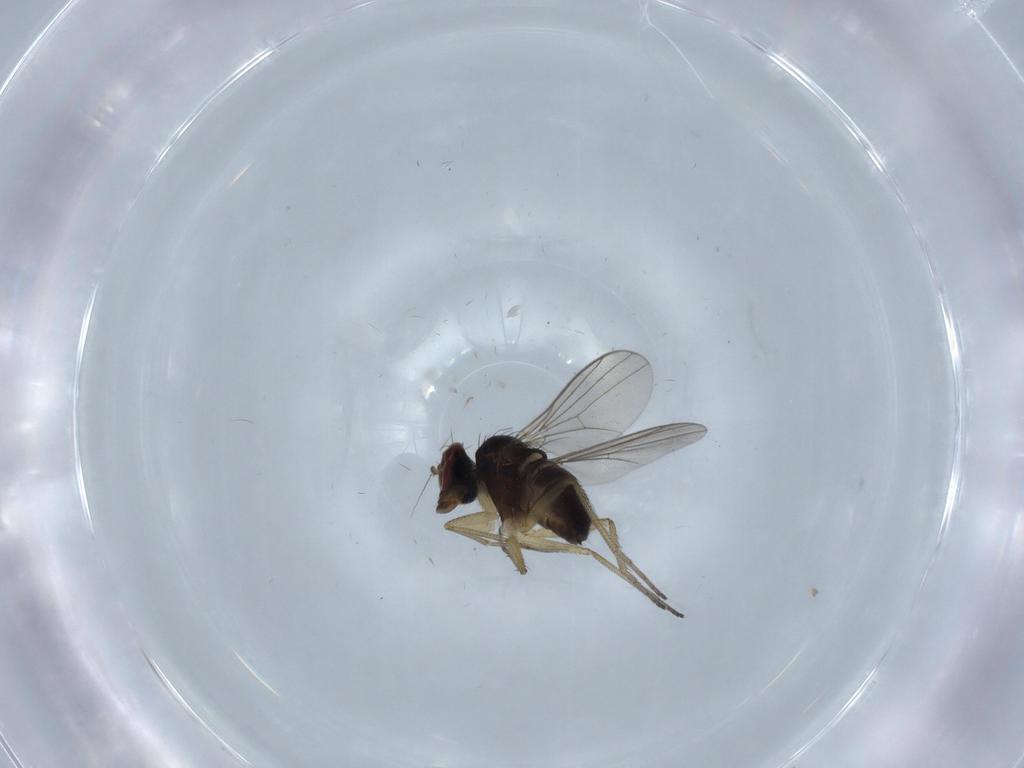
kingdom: Animalia
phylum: Arthropoda
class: Insecta
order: Diptera
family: Dolichopodidae
